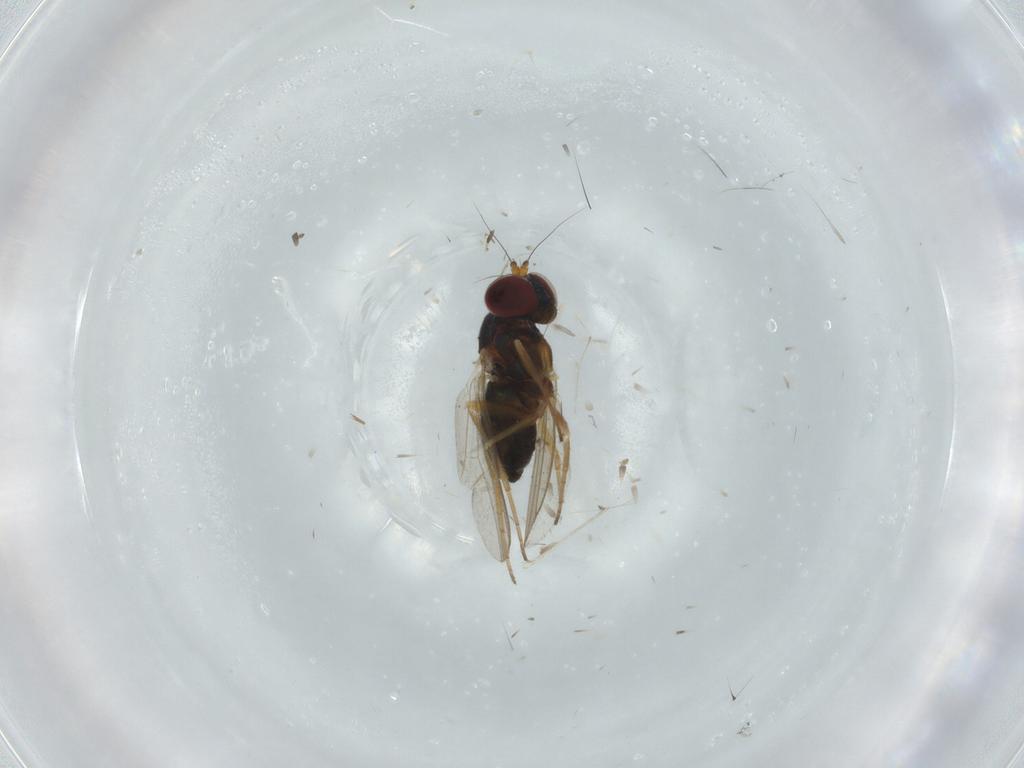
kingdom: Animalia
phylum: Arthropoda
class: Insecta
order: Diptera
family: Dolichopodidae
